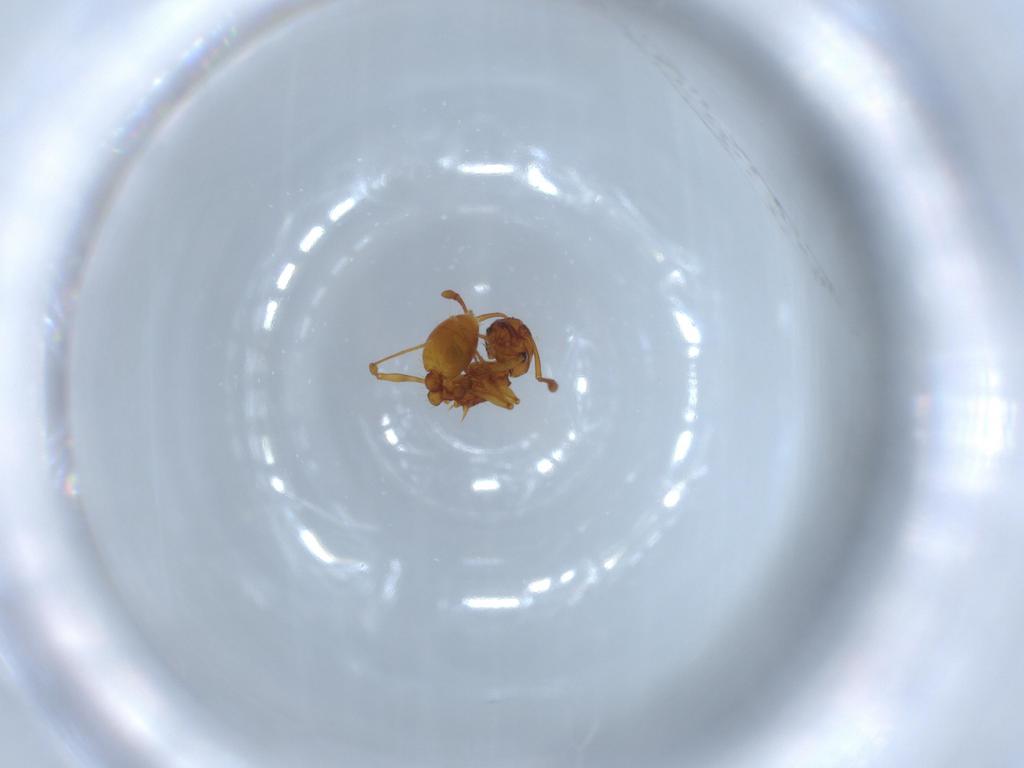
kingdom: Animalia
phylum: Arthropoda
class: Insecta
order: Hymenoptera
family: Formicidae
